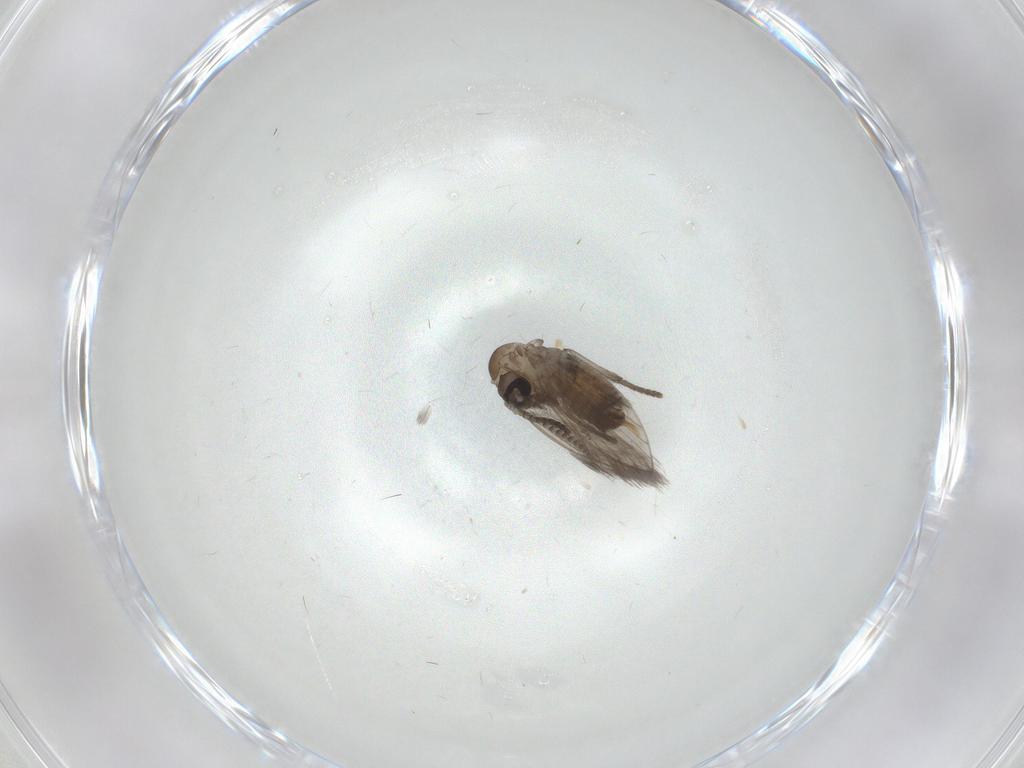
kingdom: Animalia
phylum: Arthropoda
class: Insecta
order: Diptera
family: Psychodidae
